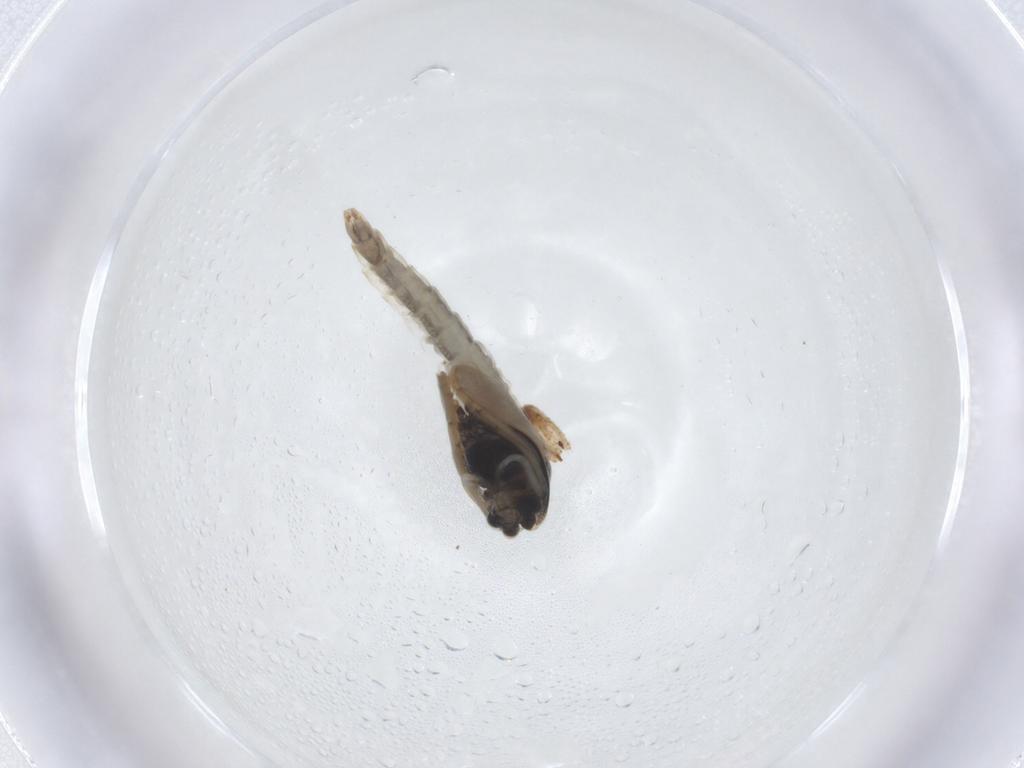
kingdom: Animalia
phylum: Arthropoda
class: Insecta
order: Diptera
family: Chironomidae
